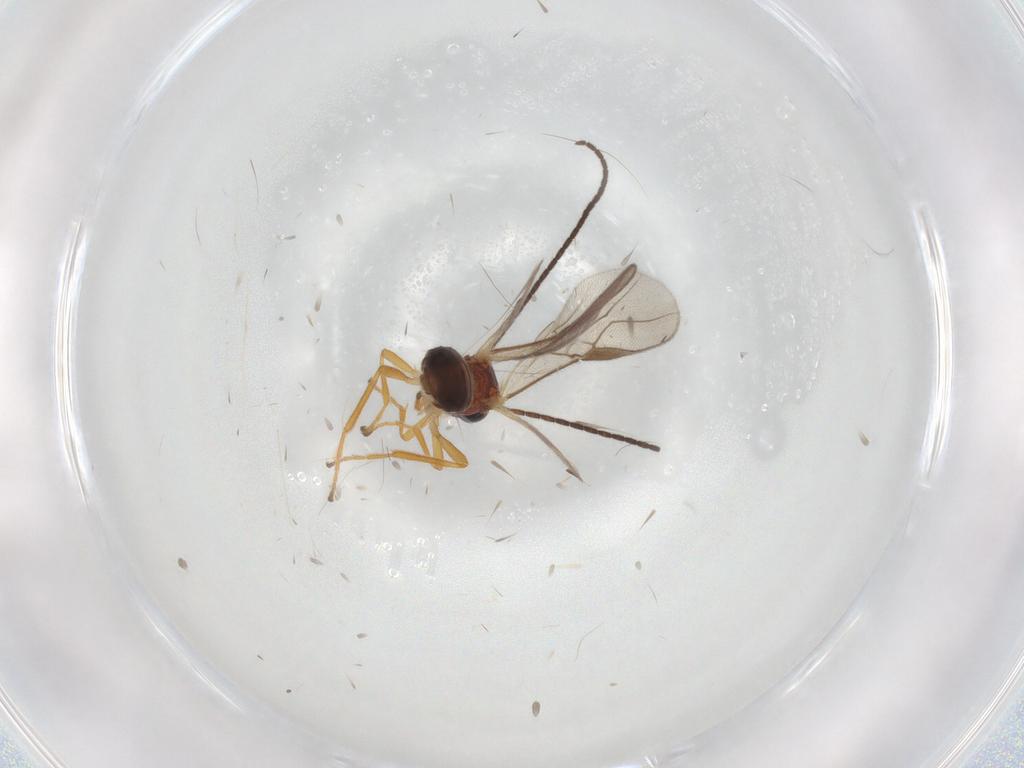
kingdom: Animalia
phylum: Arthropoda
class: Insecta
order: Hymenoptera
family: Braconidae
